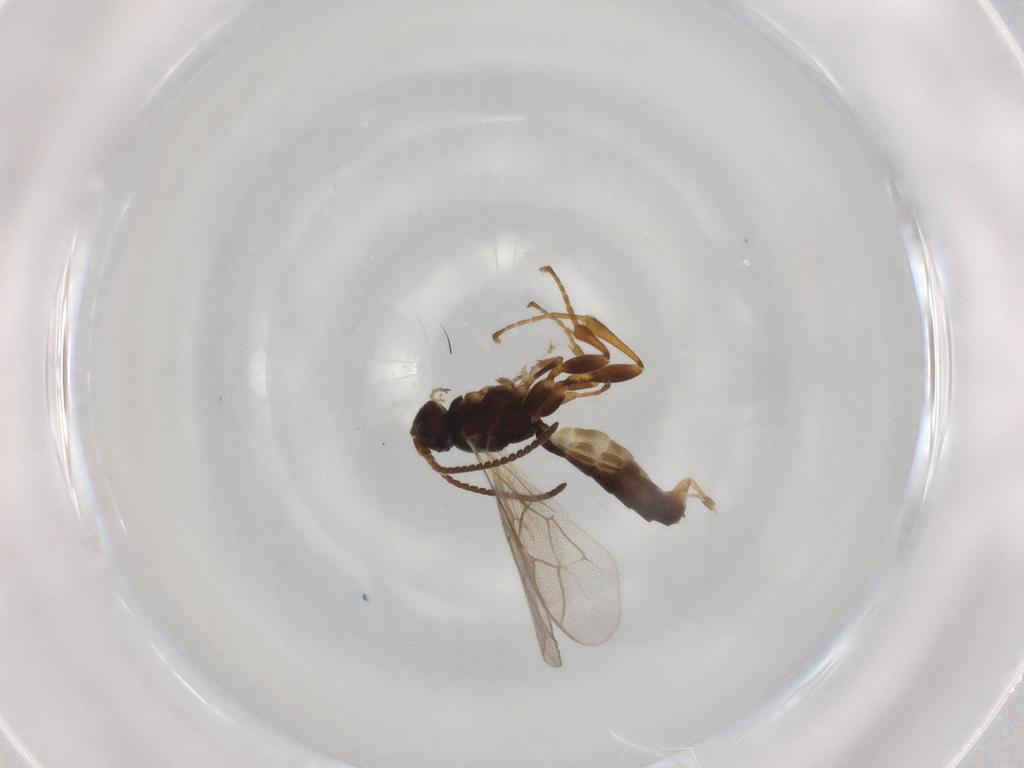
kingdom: Animalia
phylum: Arthropoda
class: Insecta
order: Hymenoptera
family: Ichneumonidae
